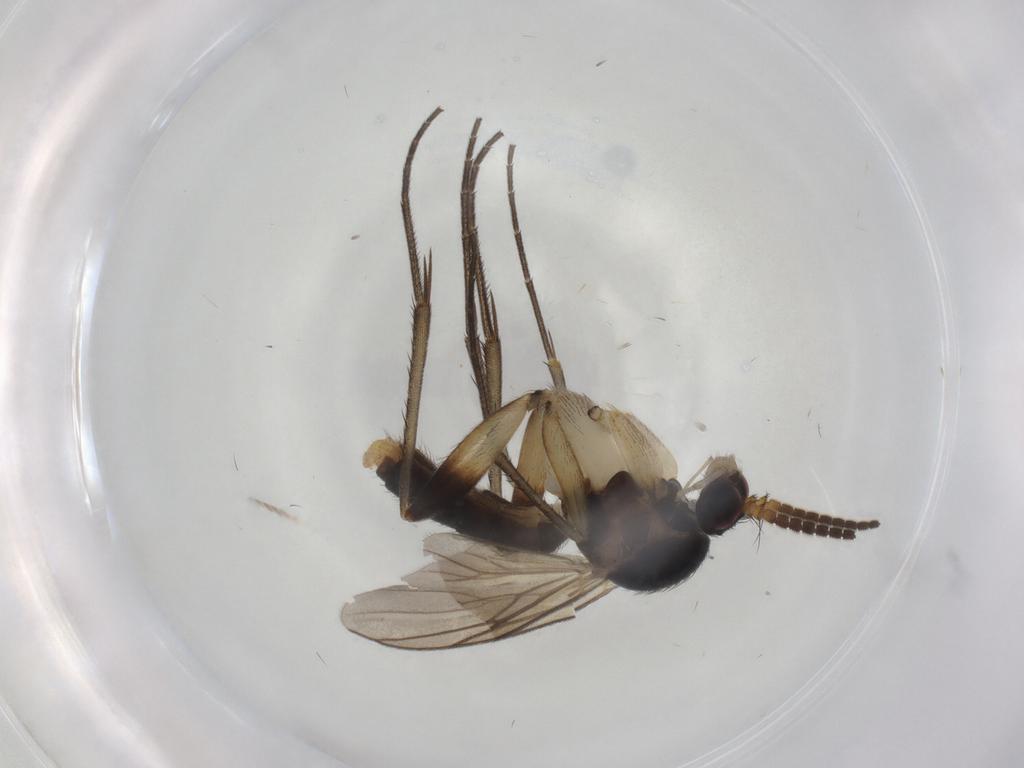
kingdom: Animalia
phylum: Arthropoda
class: Insecta
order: Diptera
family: Mycetophilidae
